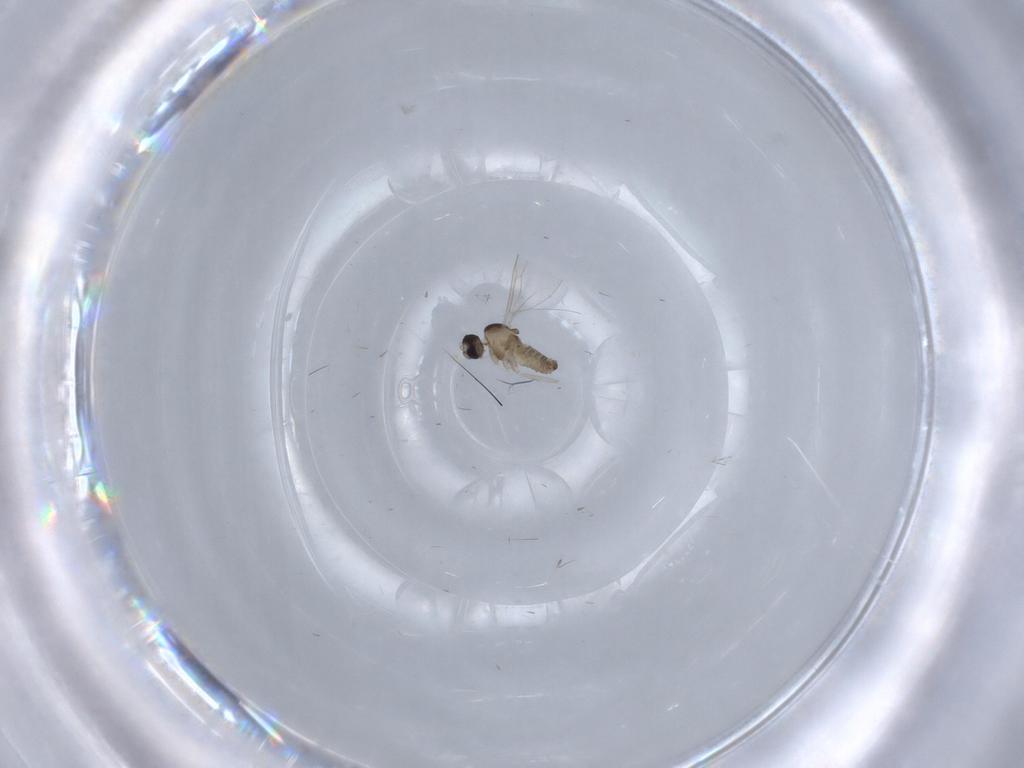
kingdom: Animalia
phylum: Arthropoda
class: Insecta
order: Diptera
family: Cecidomyiidae
